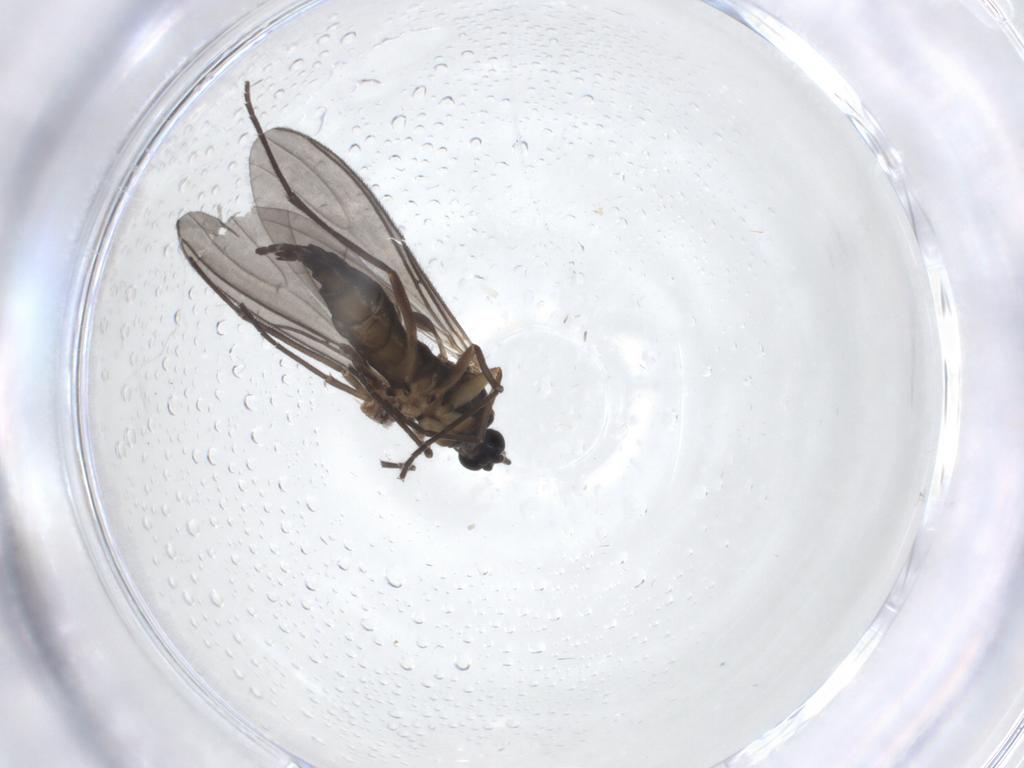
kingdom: Animalia
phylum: Arthropoda
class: Insecta
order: Diptera
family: Sciaridae
